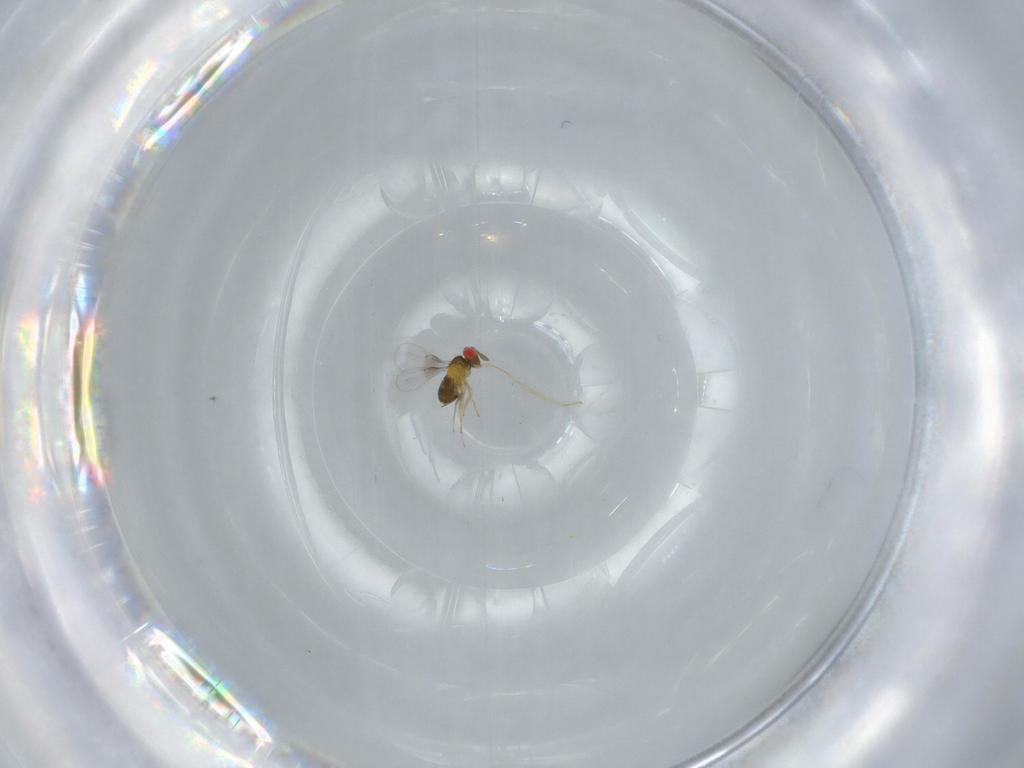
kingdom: Animalia
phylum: Arthropoda
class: Insecta
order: Hymenoptera
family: Trichogrammatidae
